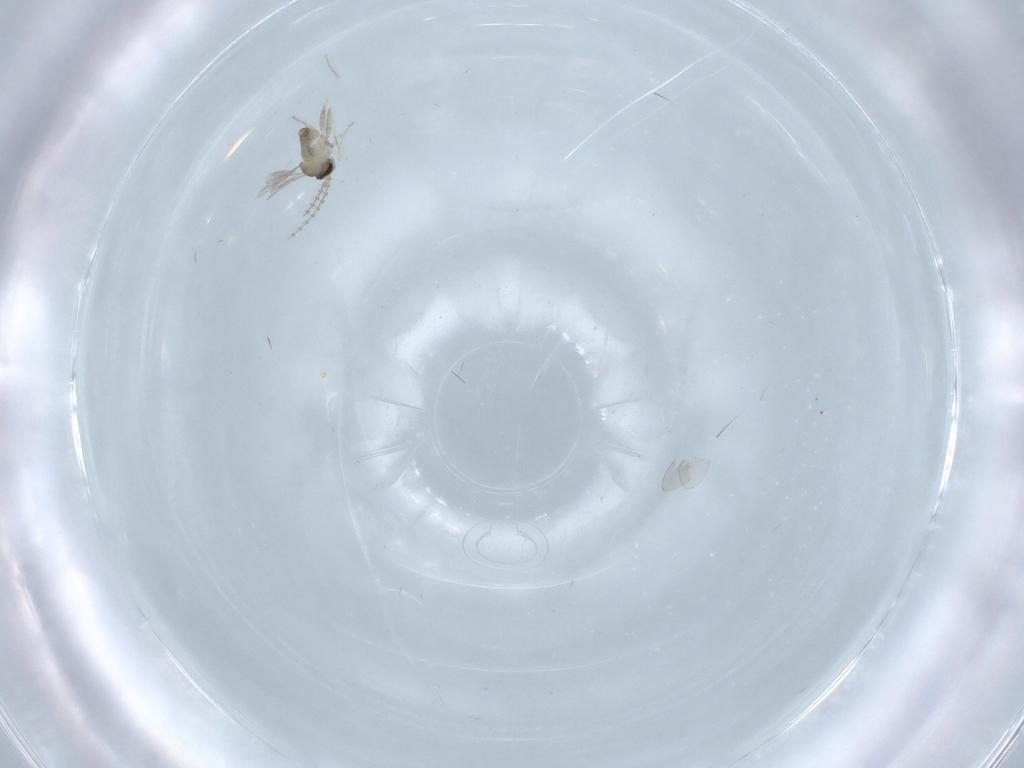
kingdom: Animalia
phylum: Arthropoda
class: Insecta
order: Diptera
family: Cecidomyiidae
